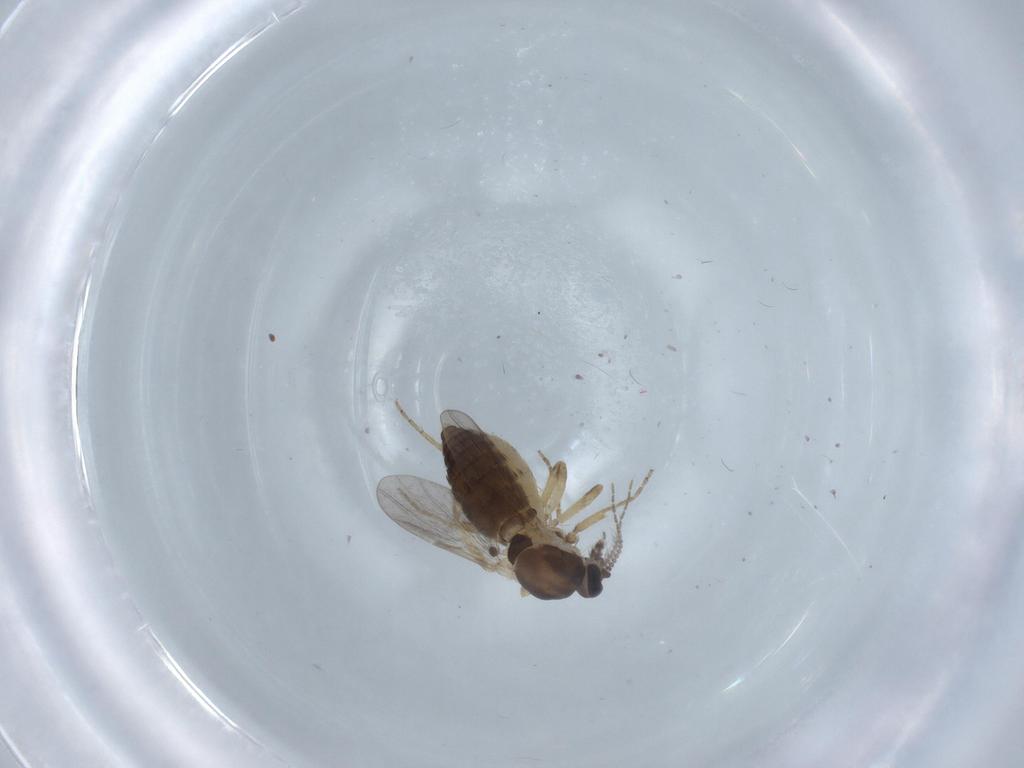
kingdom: Animalia
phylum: Arthropoda
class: Insecta
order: Diptera
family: Ceratopogonidae
